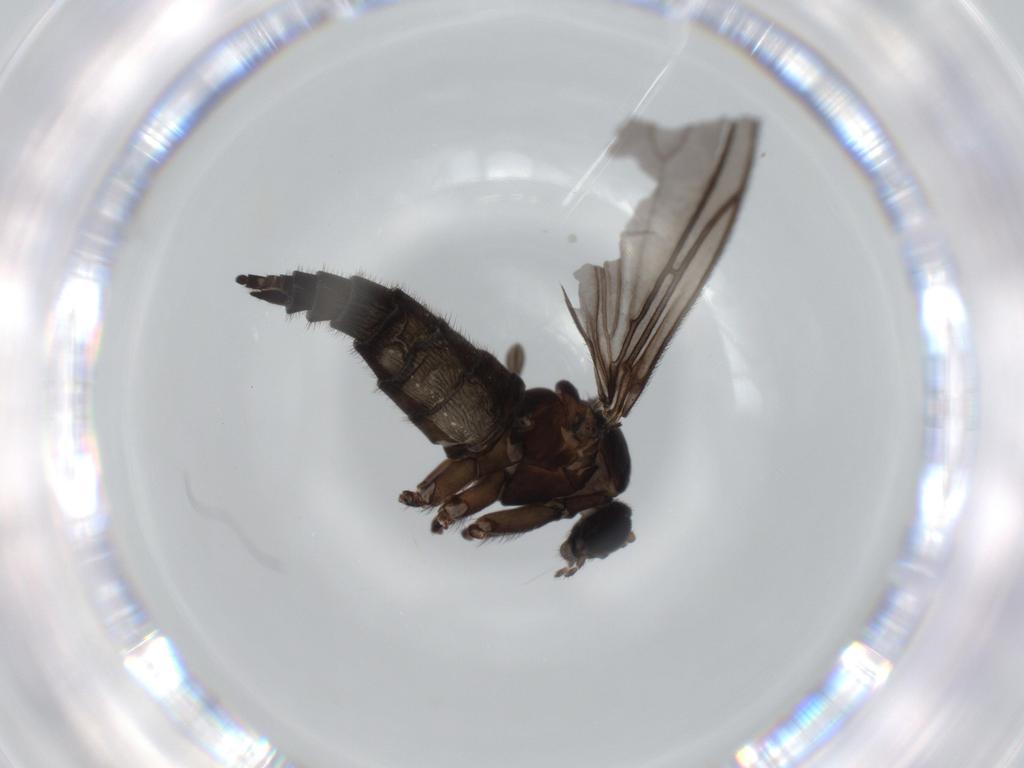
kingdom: Animalia
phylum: Arthropoda
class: Insecta
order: Diptera
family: Sciaridae
